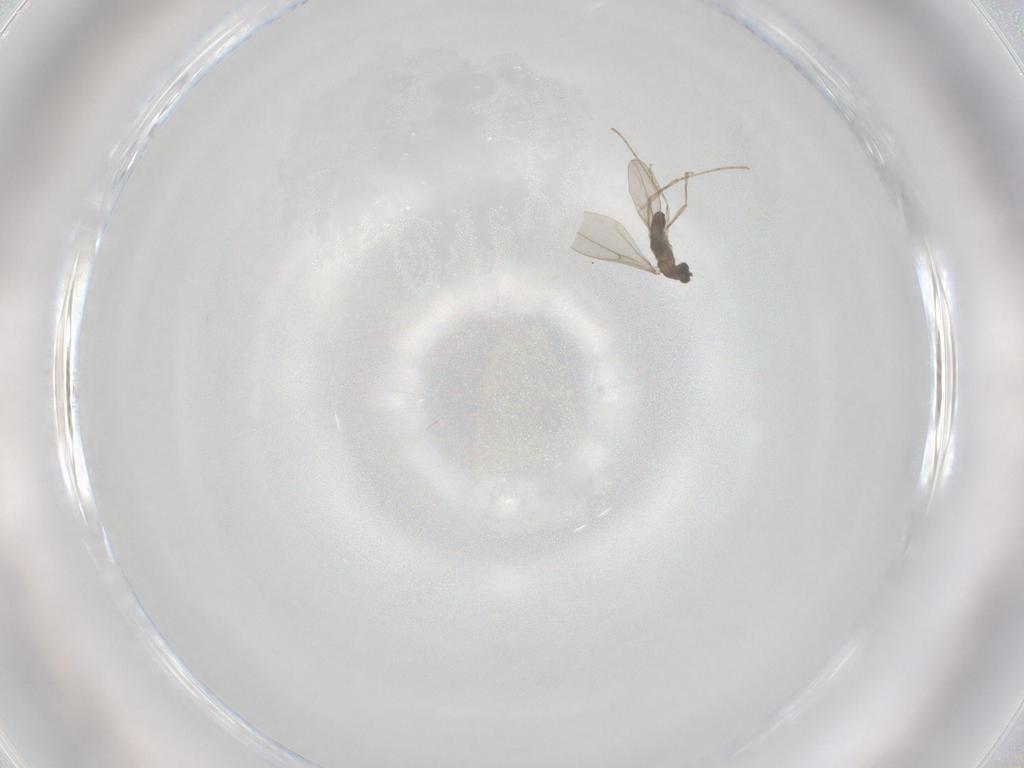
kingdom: Animalia
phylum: Arthropoda
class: Insecta
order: Diptera
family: Cecidomyiidae
